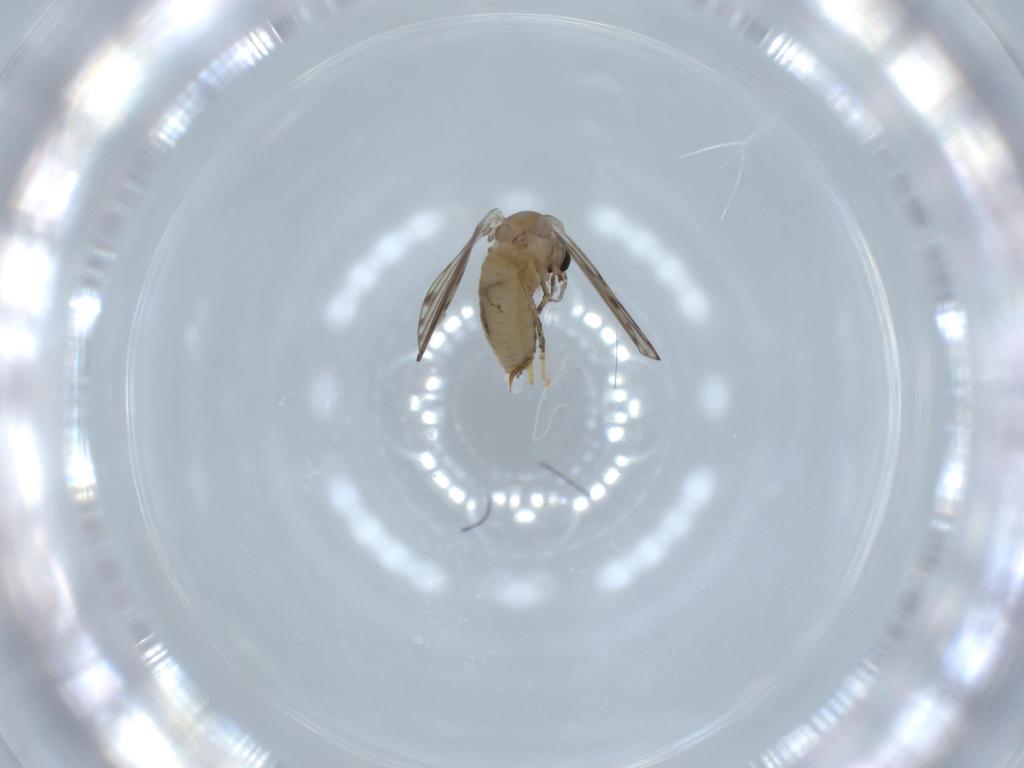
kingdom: Animalia
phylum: Arthropoda
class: Insecta
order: Diptera
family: Psychodidae
